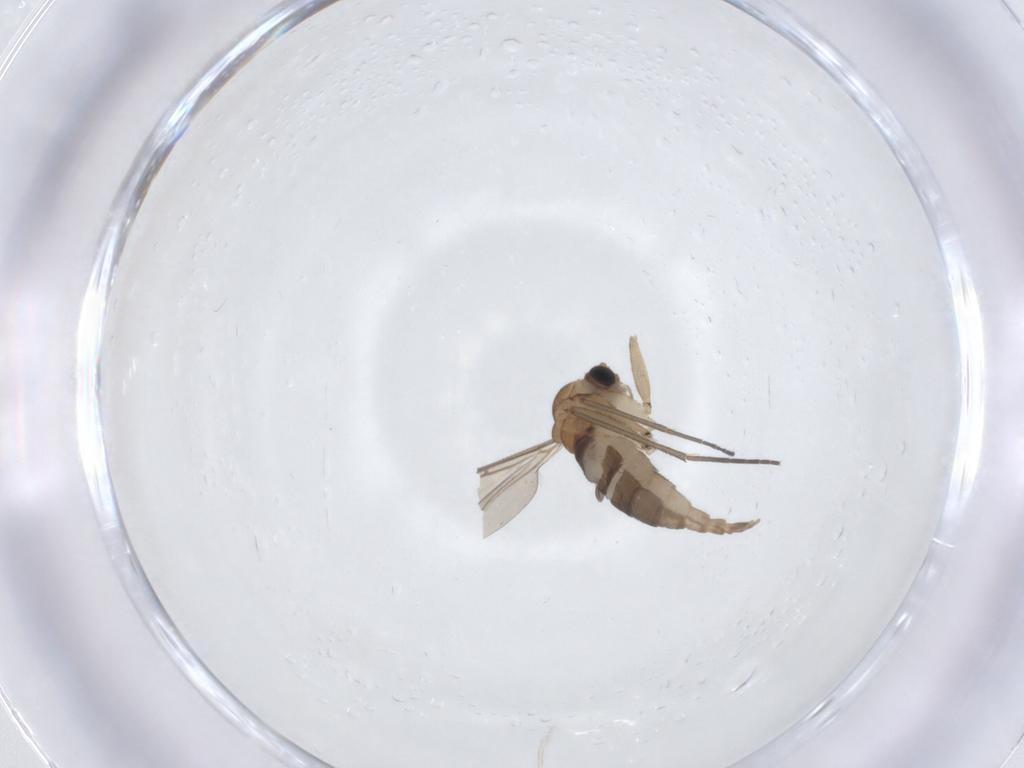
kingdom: Animalia
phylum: Arthropoda
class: Insecta
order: Diptera
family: Sciaridae
